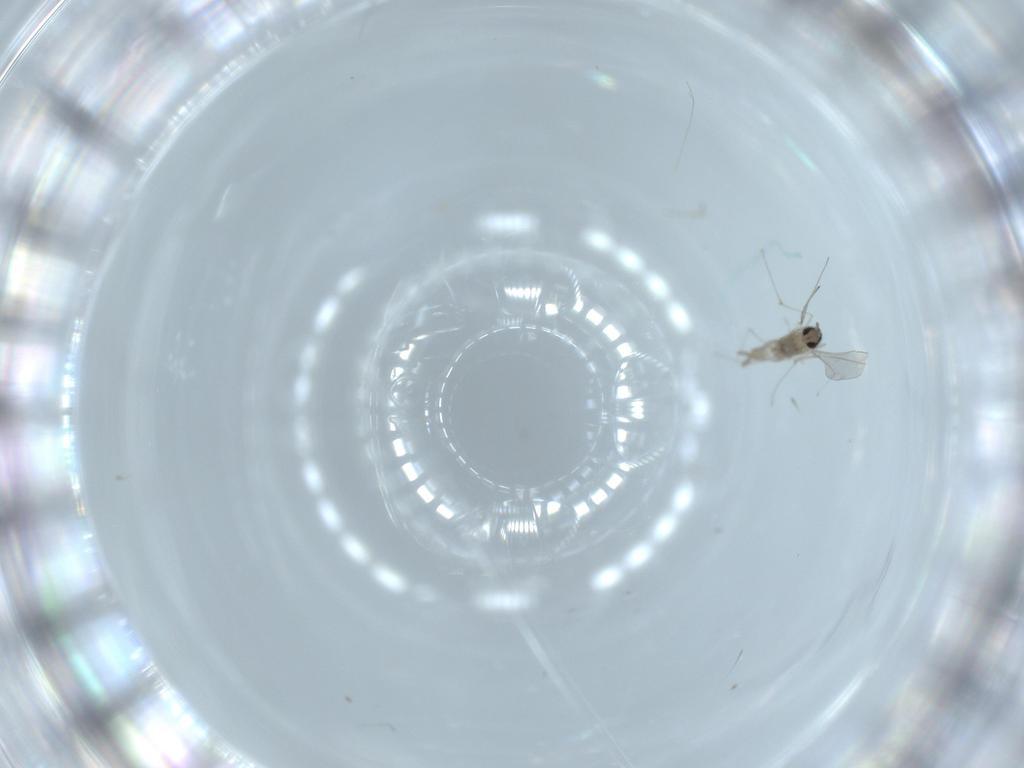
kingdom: Animalia
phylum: Arthropoda
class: Insecta
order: Diptera
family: Cecidomyiidae
